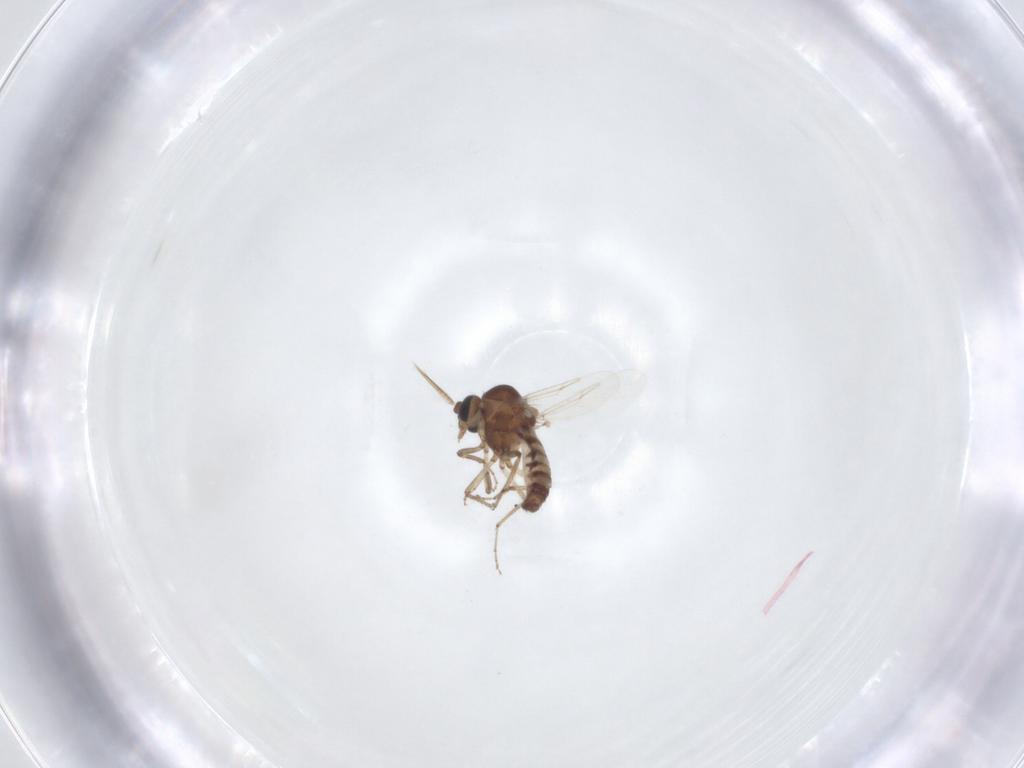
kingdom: Animalia
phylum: Arthropoda
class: Insecta
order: Diptera
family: Ceratopogonidae
